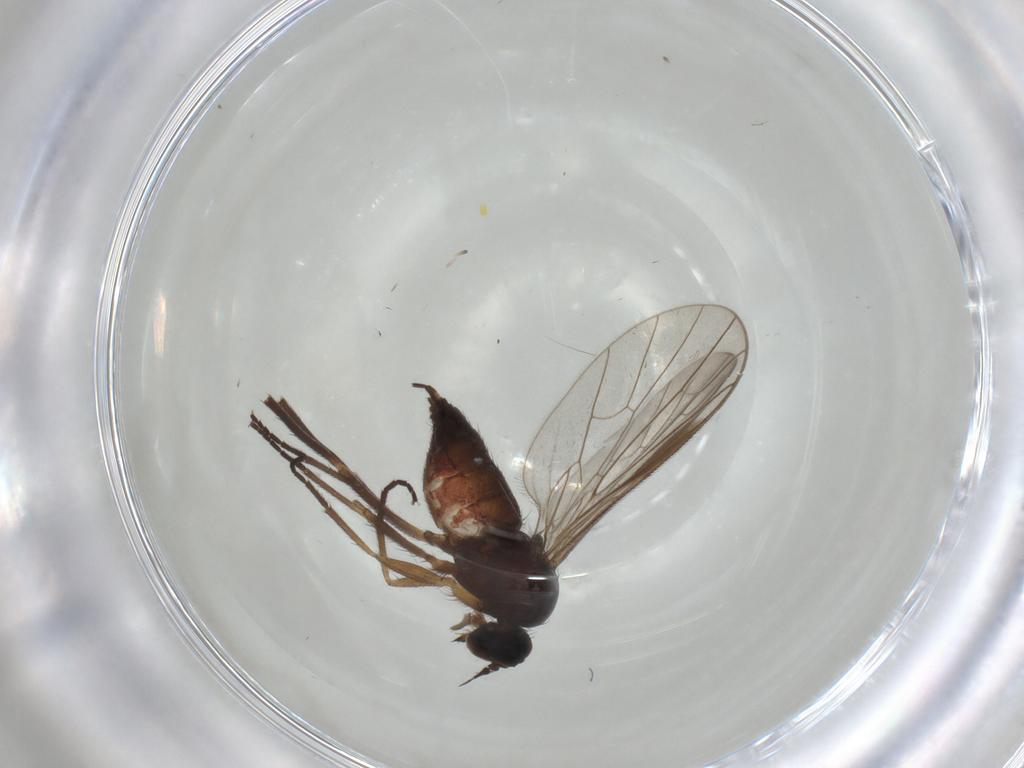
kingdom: Animalia
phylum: Arthropoda
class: Insecta
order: Diptera
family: Empididae
